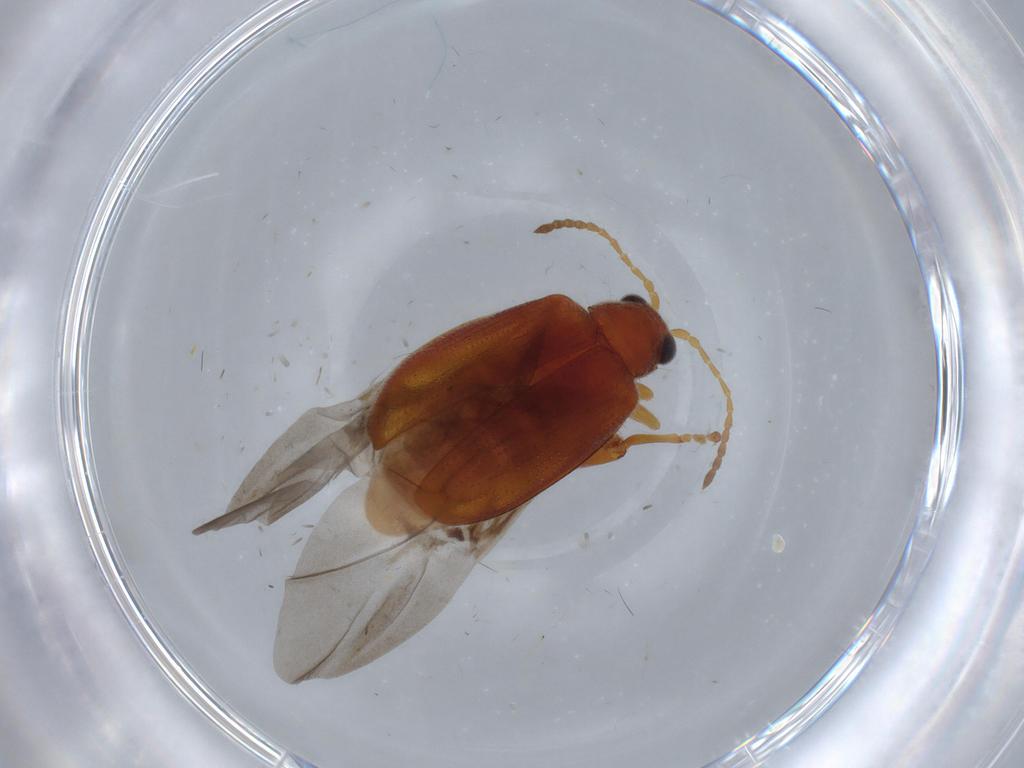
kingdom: Animalia
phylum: Arthropoda
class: Insecta
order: Coleoptera
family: Chrysomelidae
